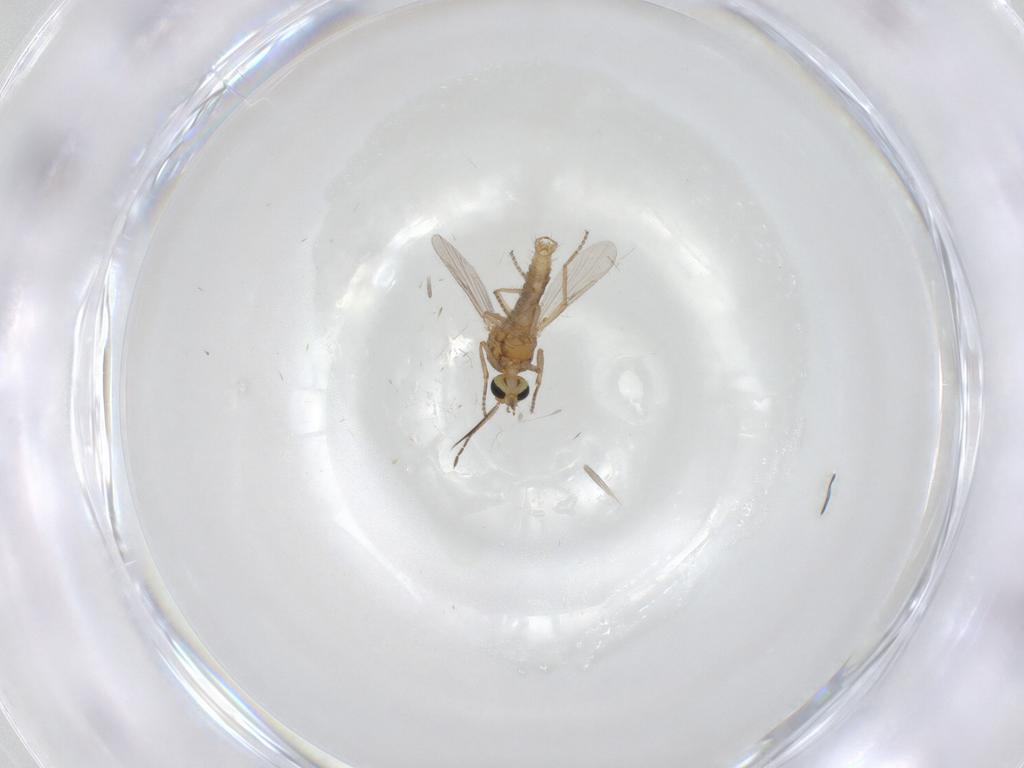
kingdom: Animalia
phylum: Arthropoda
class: Insecta
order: Diptera
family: Ceratopogonidae
